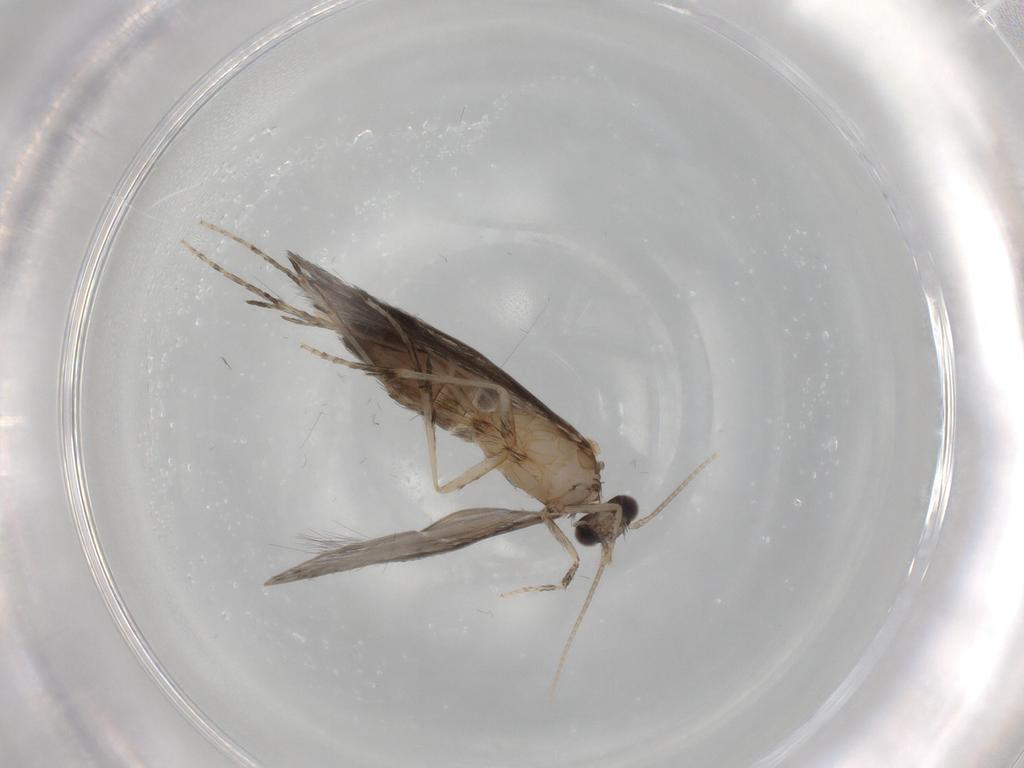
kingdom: Animalia
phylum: Arthropoda
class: Insecta
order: Trichoptera
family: Hydroptilidae
